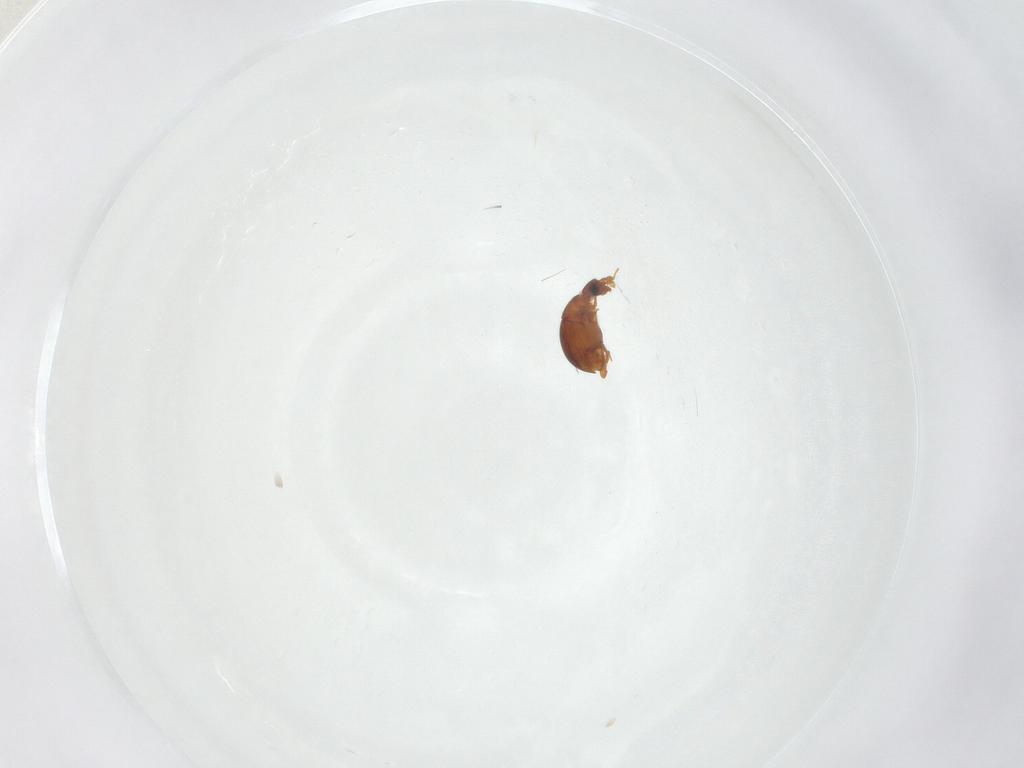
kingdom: Animalia
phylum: Arthropoda
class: Insecta
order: Coleoptera
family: Staphylinidae
